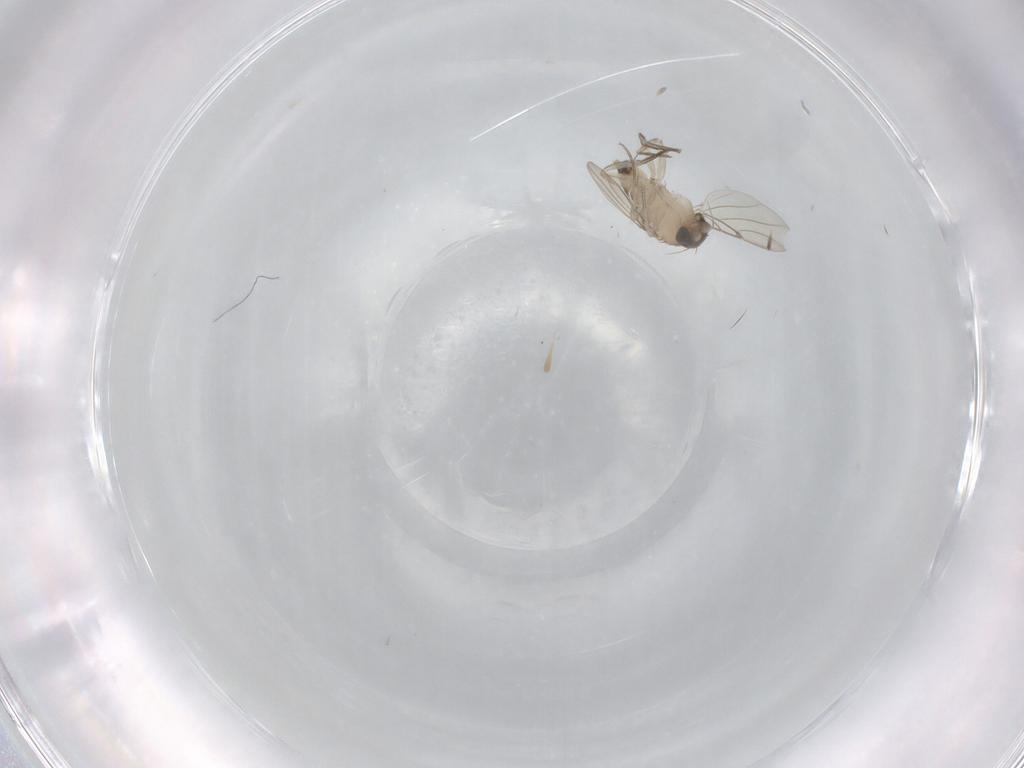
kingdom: Animalia
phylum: Arthropoda
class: Insecta
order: Diptera
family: Phoridae
